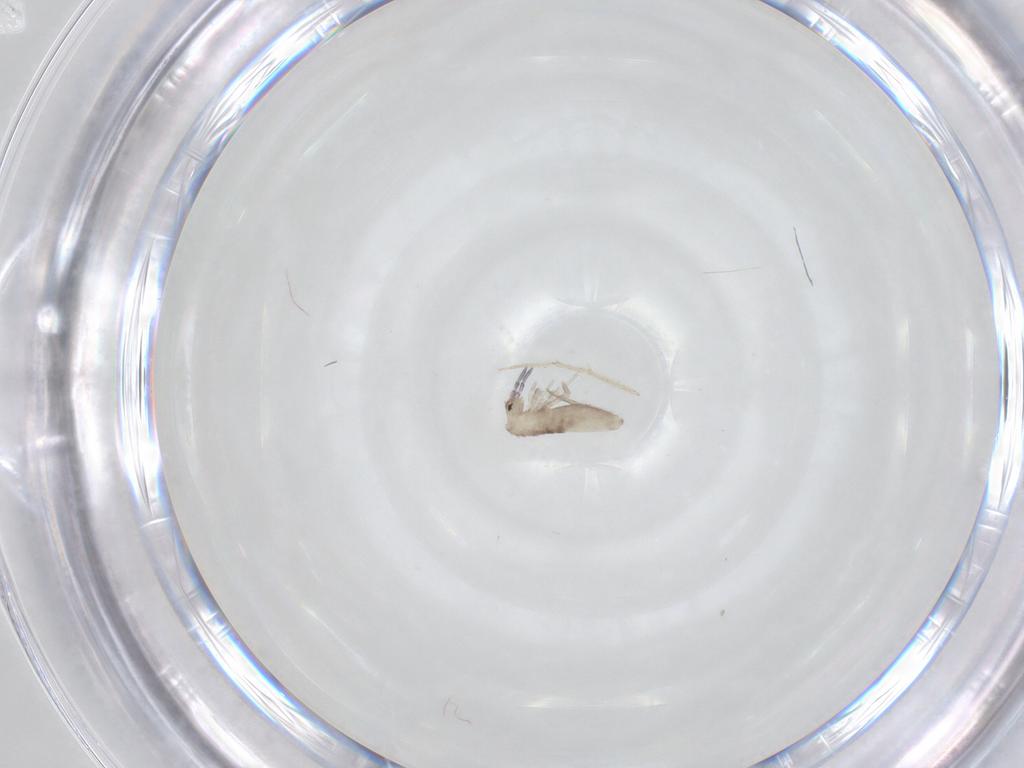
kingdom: Animalia
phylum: Arthropoda
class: Collembola
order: Entomobryomorpha
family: Entomobryidae
